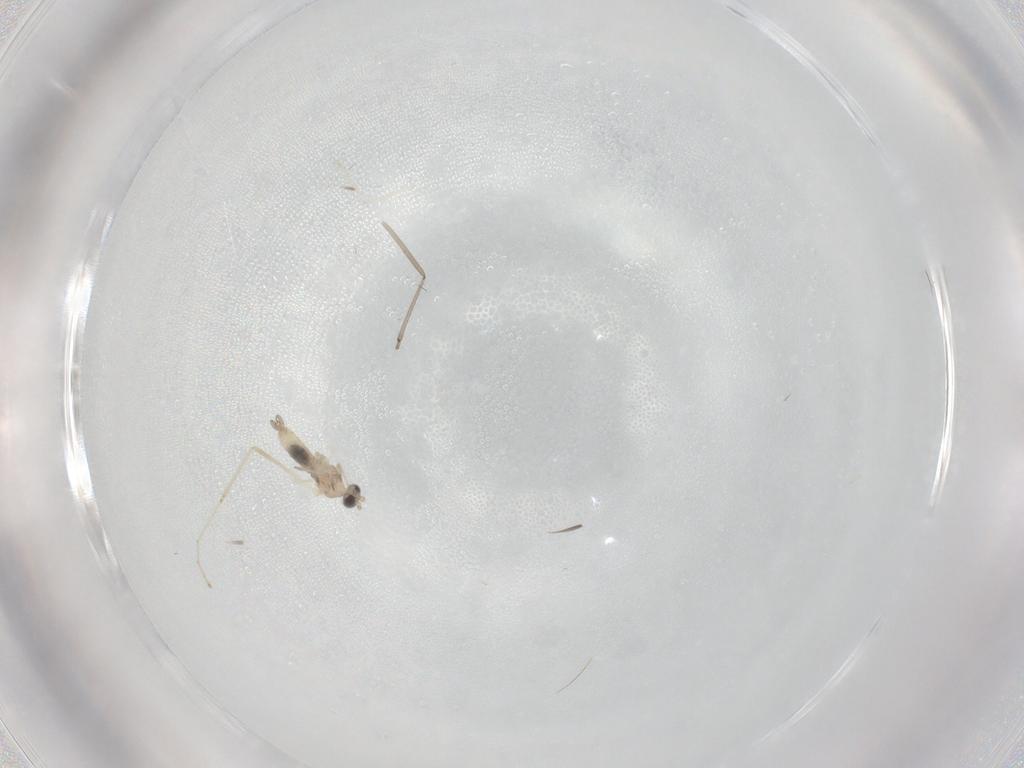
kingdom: Animalia
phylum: Arthropoda
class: Insecta
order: Diptera
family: Cecidomyiidae
